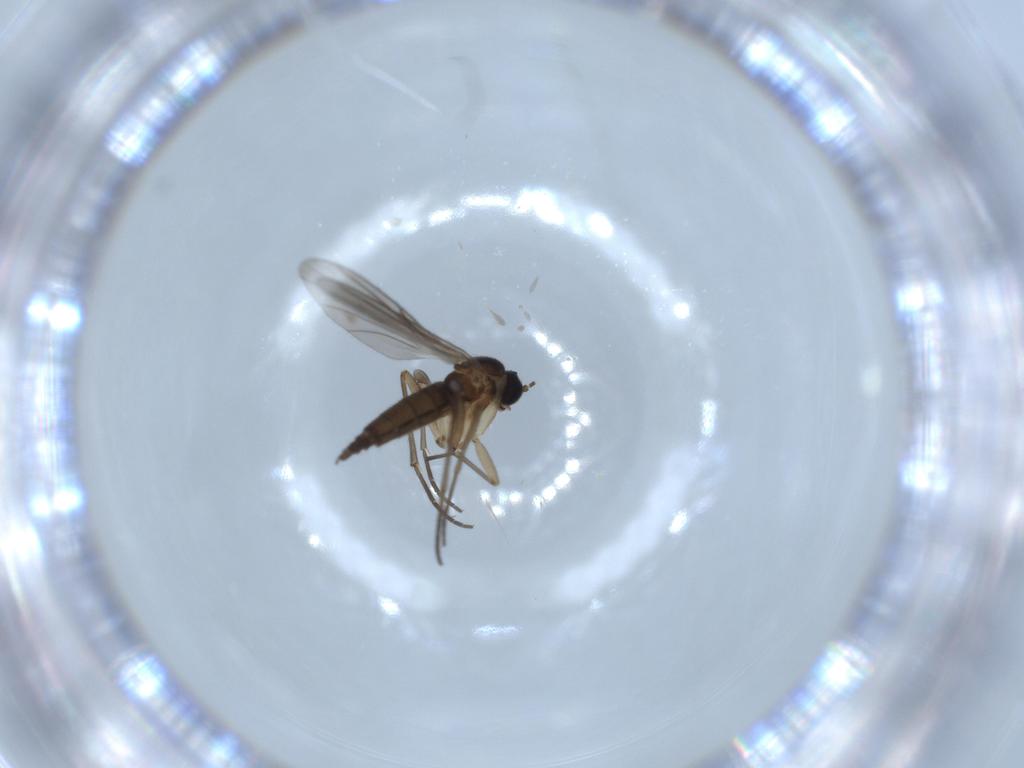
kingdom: Animalia
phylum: Arthropoda
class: Insecta
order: Diptera
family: Sciaridae
